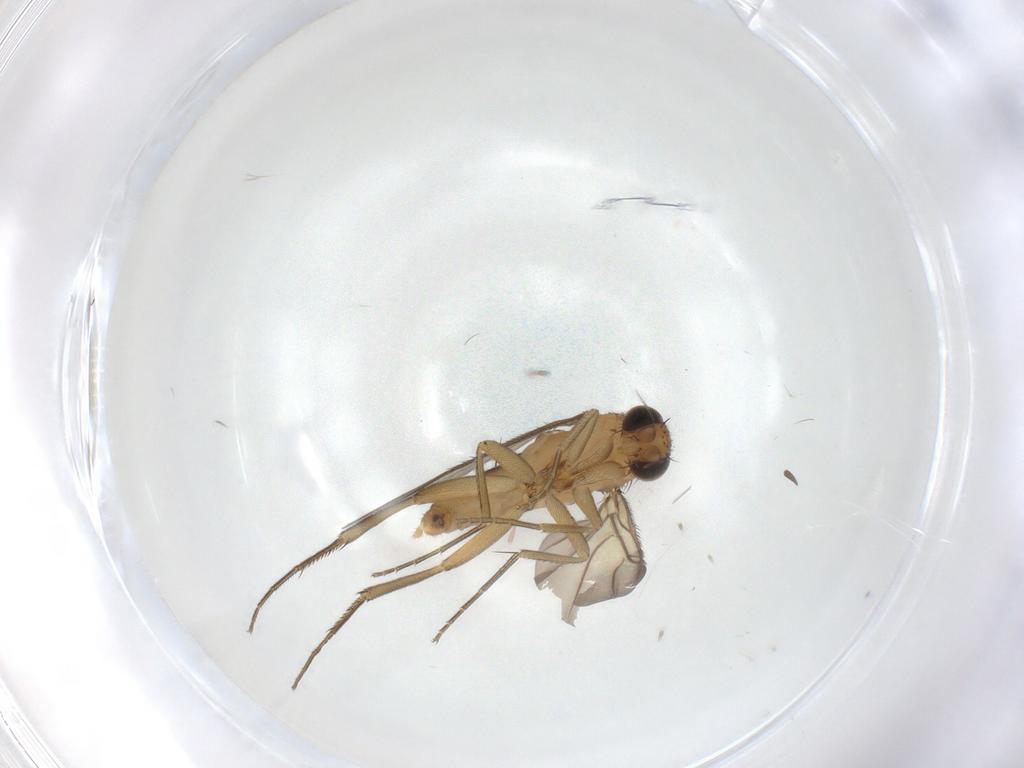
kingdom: Animalia
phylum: Arthropoda
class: Insecta
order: Diptera
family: Phoridae
